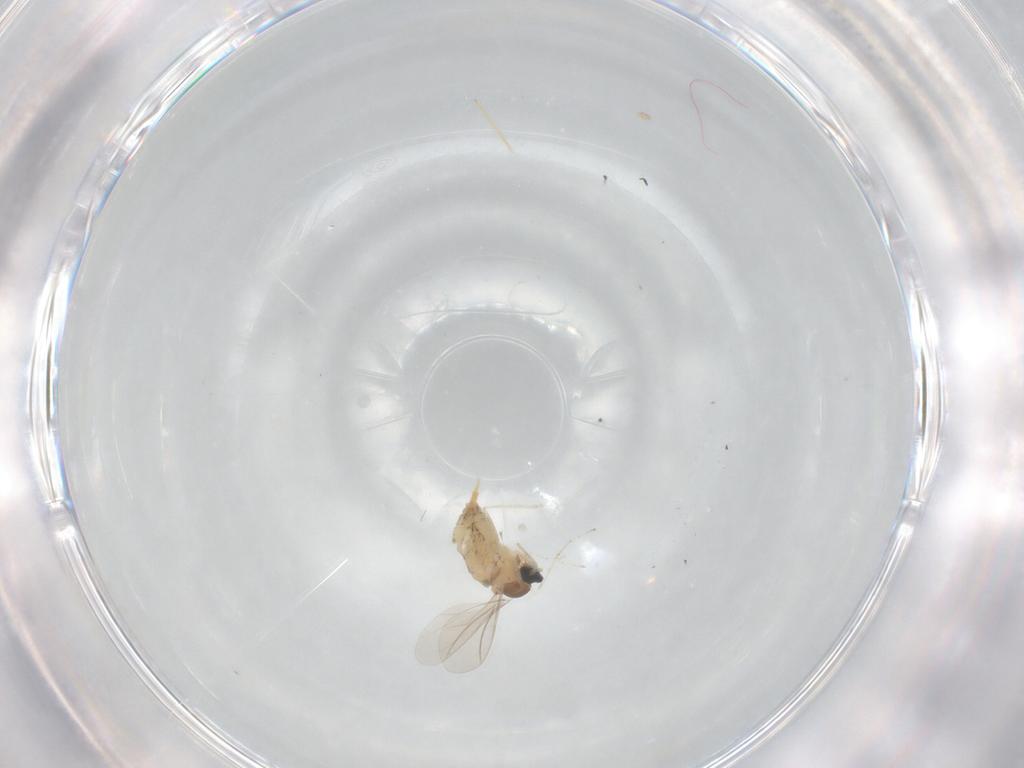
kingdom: Animalia
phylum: Arthropoda
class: Insecta
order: Diptera
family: Cecidomyiidae
